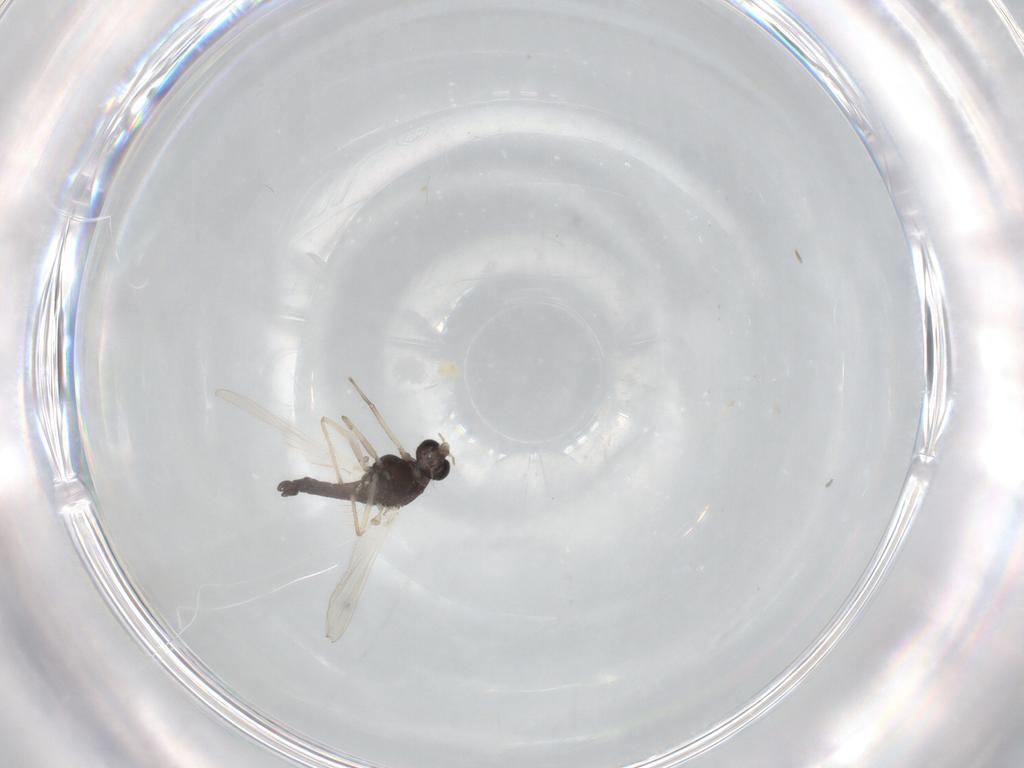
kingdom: Animalia
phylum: Arthropoda
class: Insecta
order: Diptera
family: Chironomidae
